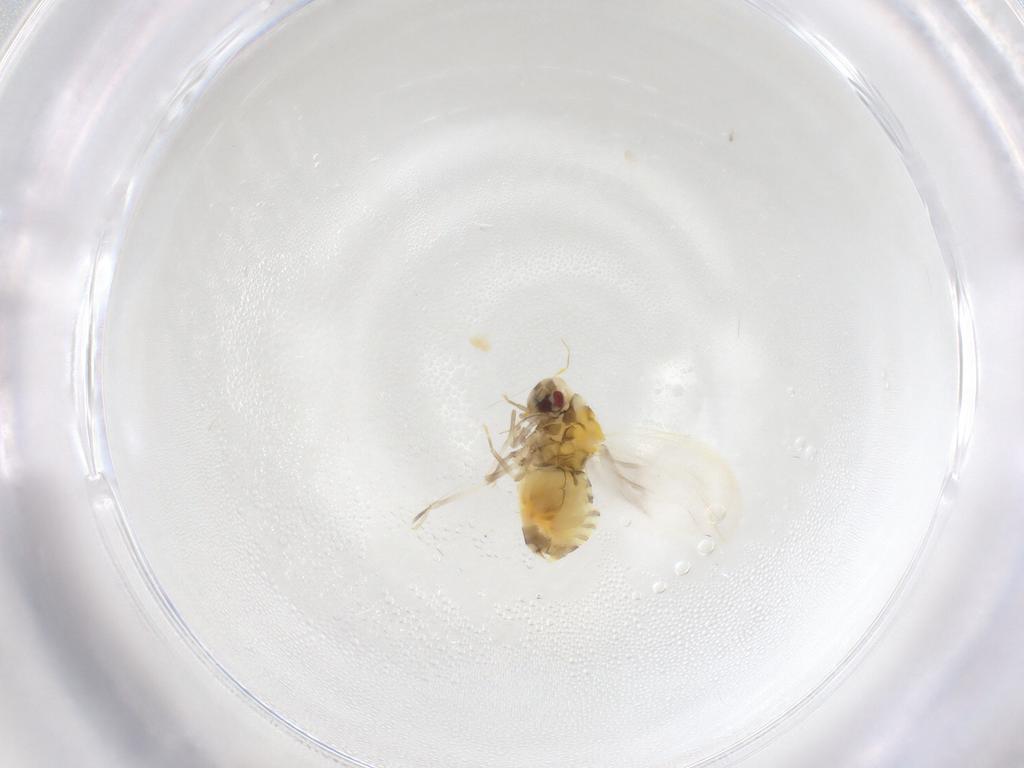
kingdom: Animalia
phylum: Arthropoda
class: Insecta
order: Hemiptera
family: Aleyrodidae
